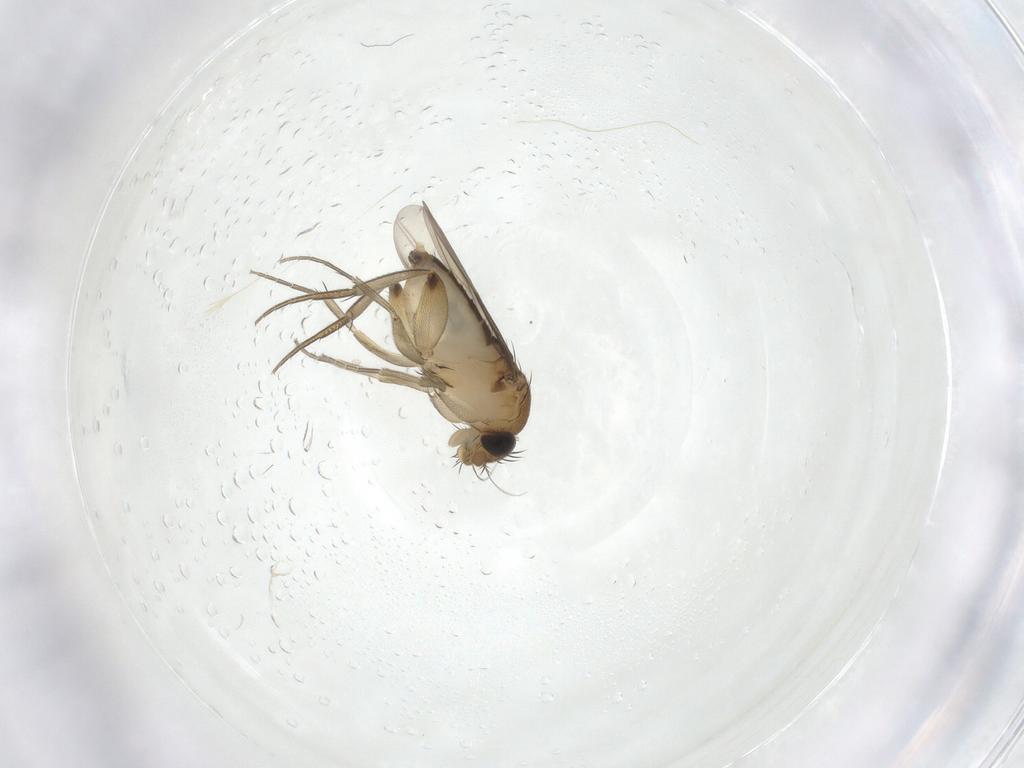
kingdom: Animalia
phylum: Arthropoda
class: Insecta
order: Diptera
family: Phoridae
